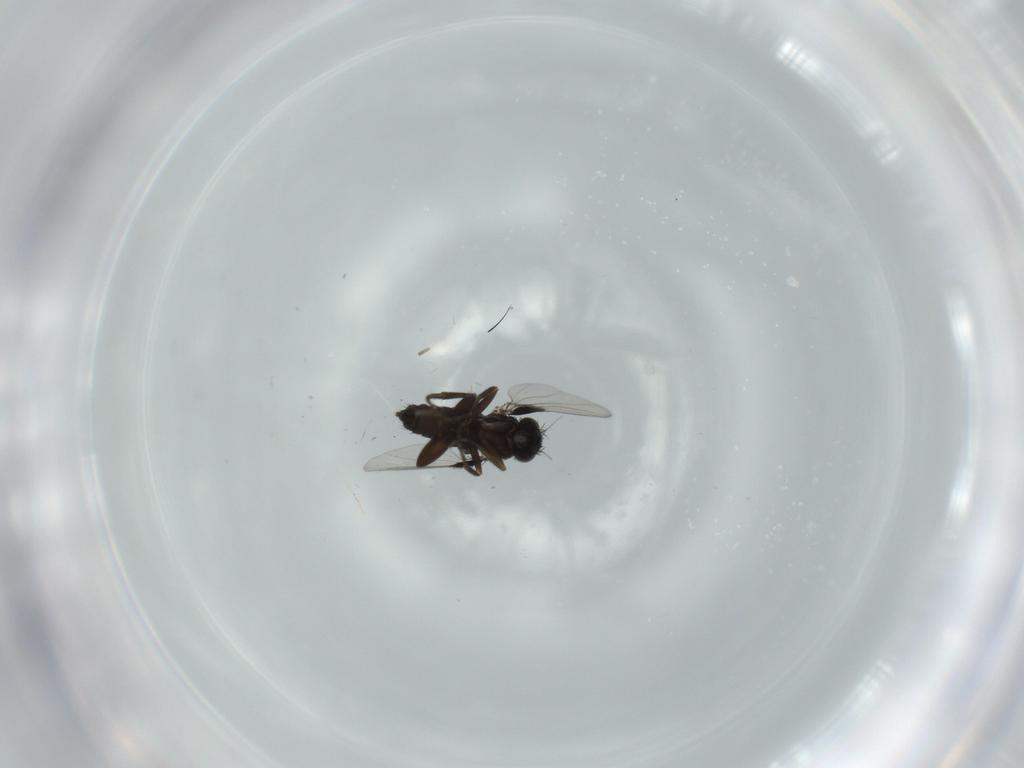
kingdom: Animalia
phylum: Arthropoda
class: Insecta
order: Diptera
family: Phoridae
